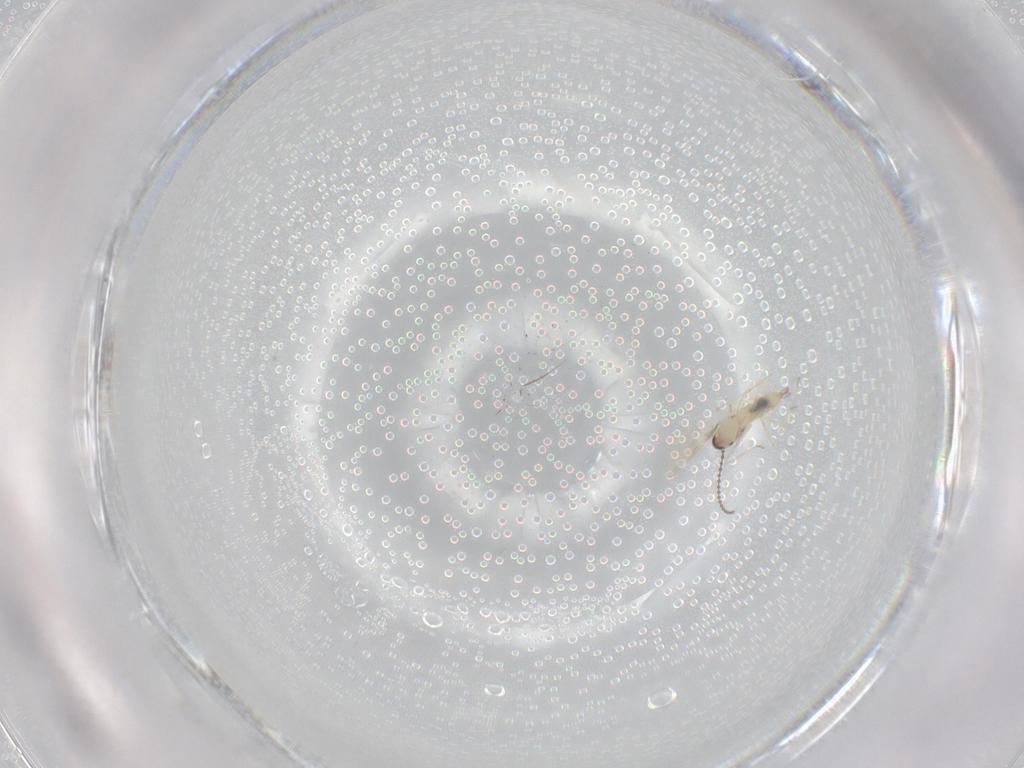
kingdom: Animalia
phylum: Arthropoda
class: Insecta
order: Diptera
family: Cecidomyiidae
